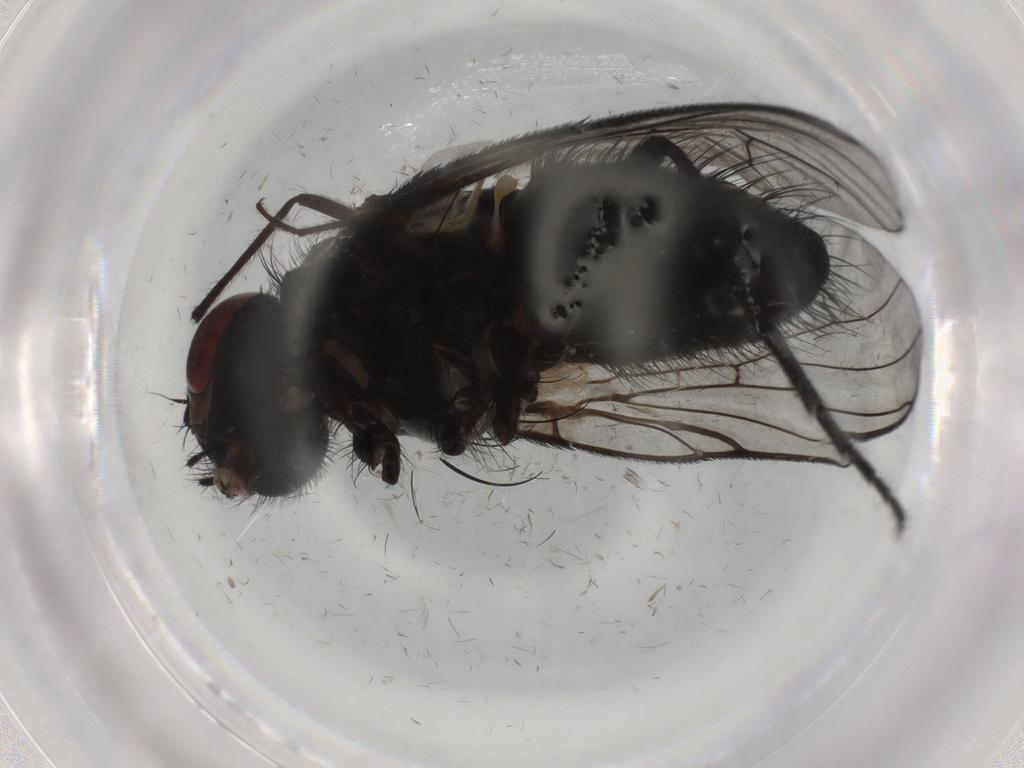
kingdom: Animalia
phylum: Arthropoda
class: Insecta
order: Diptera
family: Muscidae
